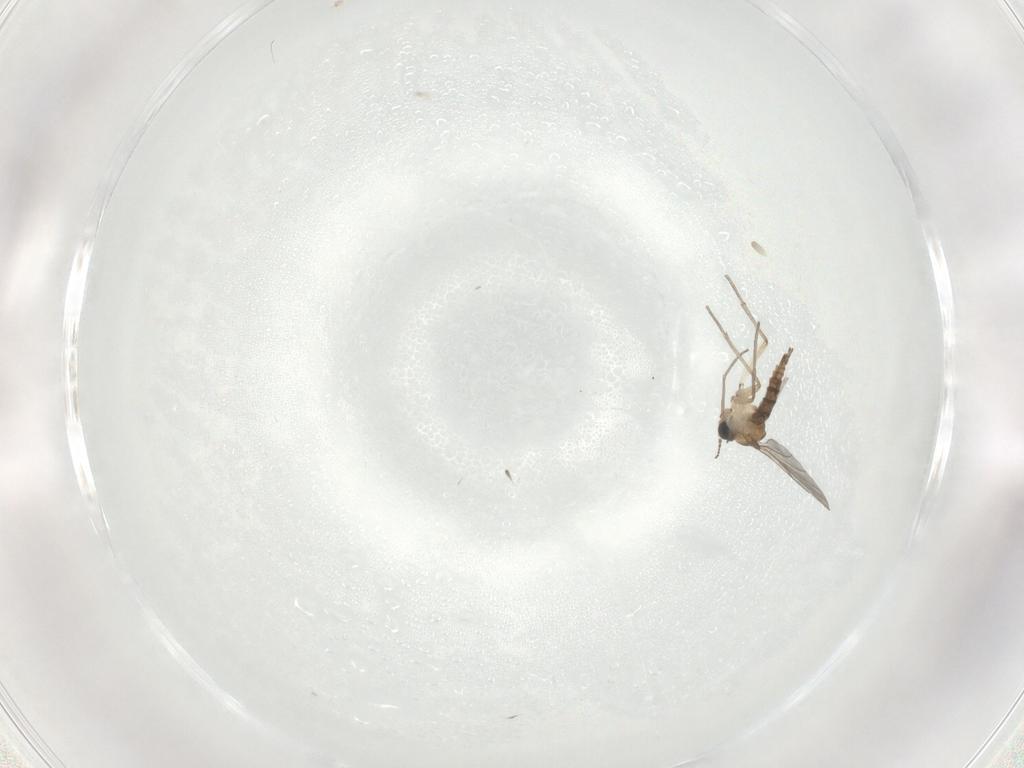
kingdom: Animalia
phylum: Arthropoda
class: Insecta
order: Diptera
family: Sciaridae
